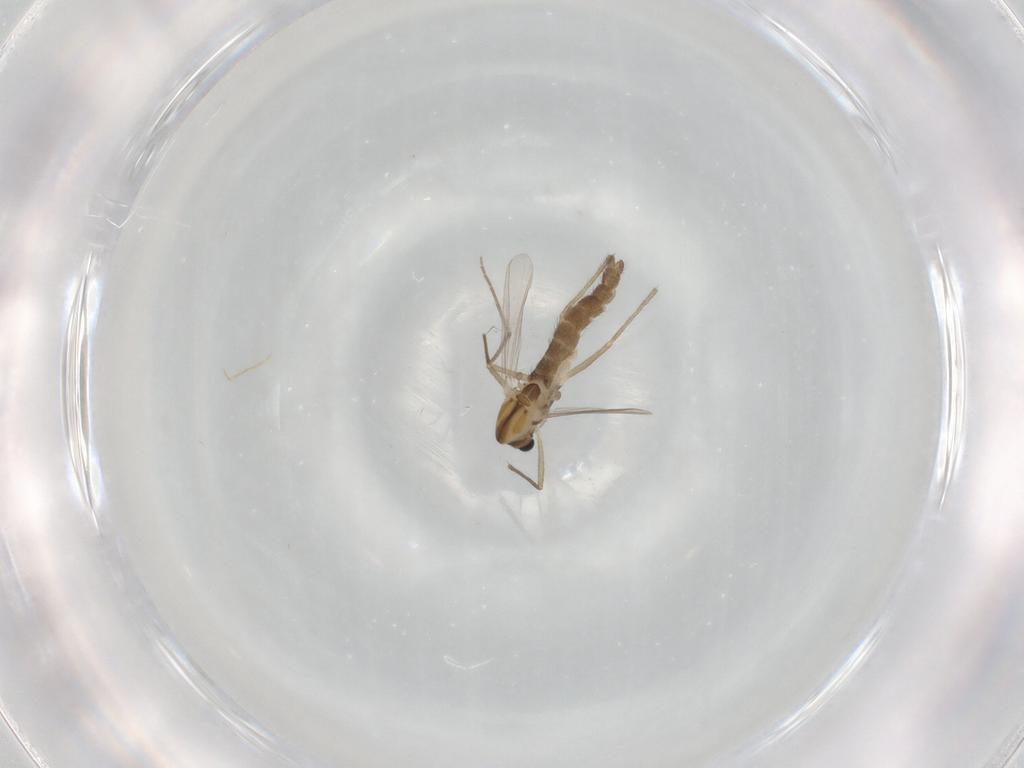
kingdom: Animalia
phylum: Arthropoda
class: Insecta
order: Diptera
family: Chironomidae
